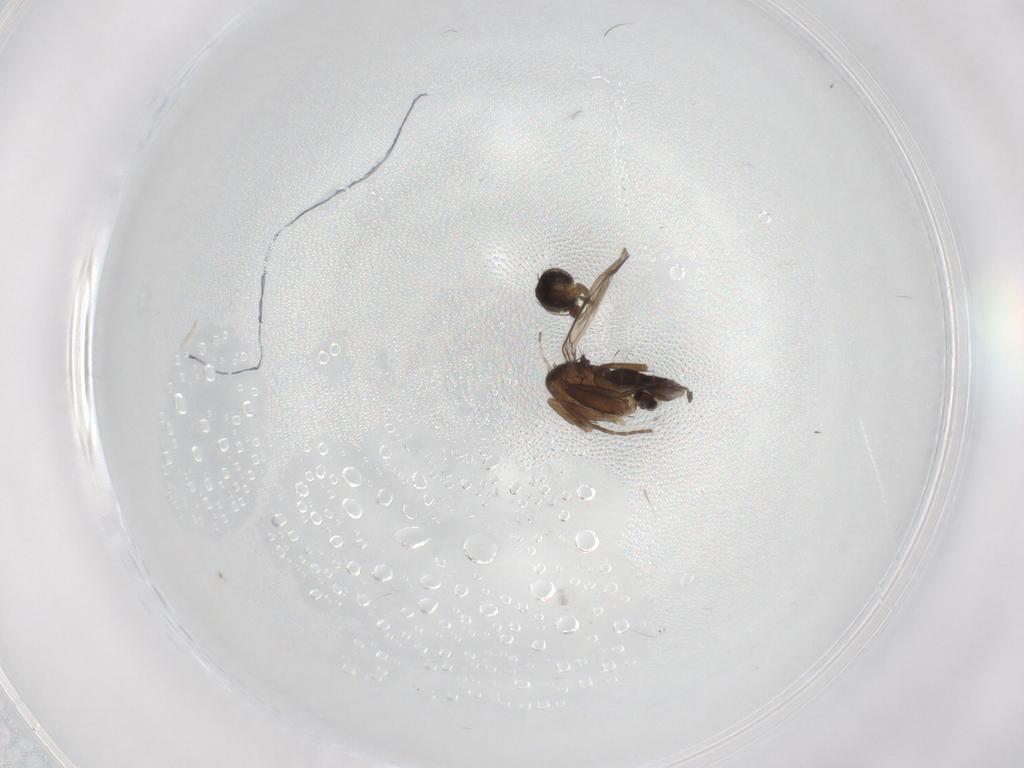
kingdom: Animalia
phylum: Arthropoda
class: Insecta
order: Diptera
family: Phoridae
